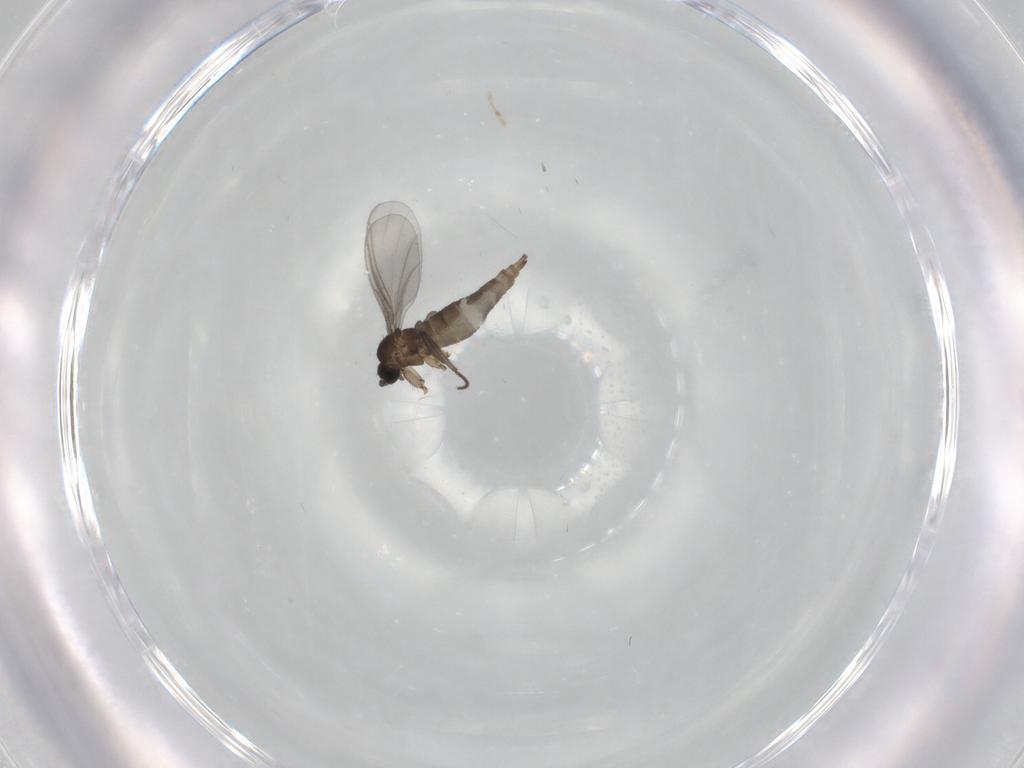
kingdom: Animalia
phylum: Arthropoda
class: Insecta
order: Diptera
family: Sciaridae
